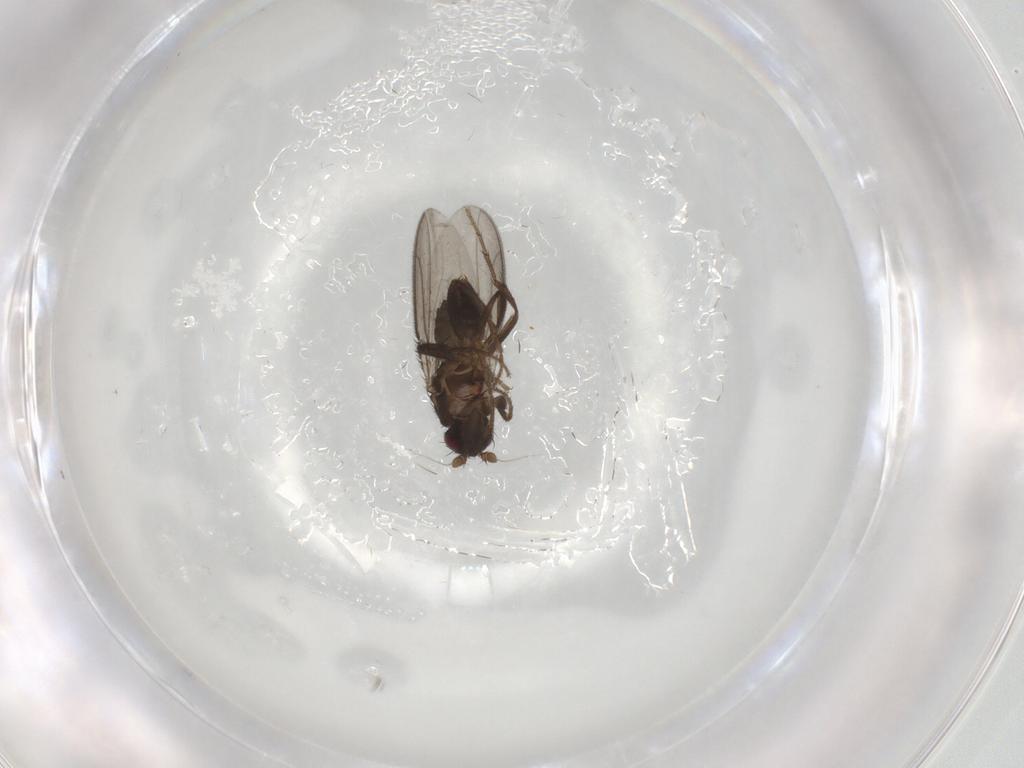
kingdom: Animalia
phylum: Arthropoda
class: Insecta
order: Diptera
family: Sphaeroceridae
